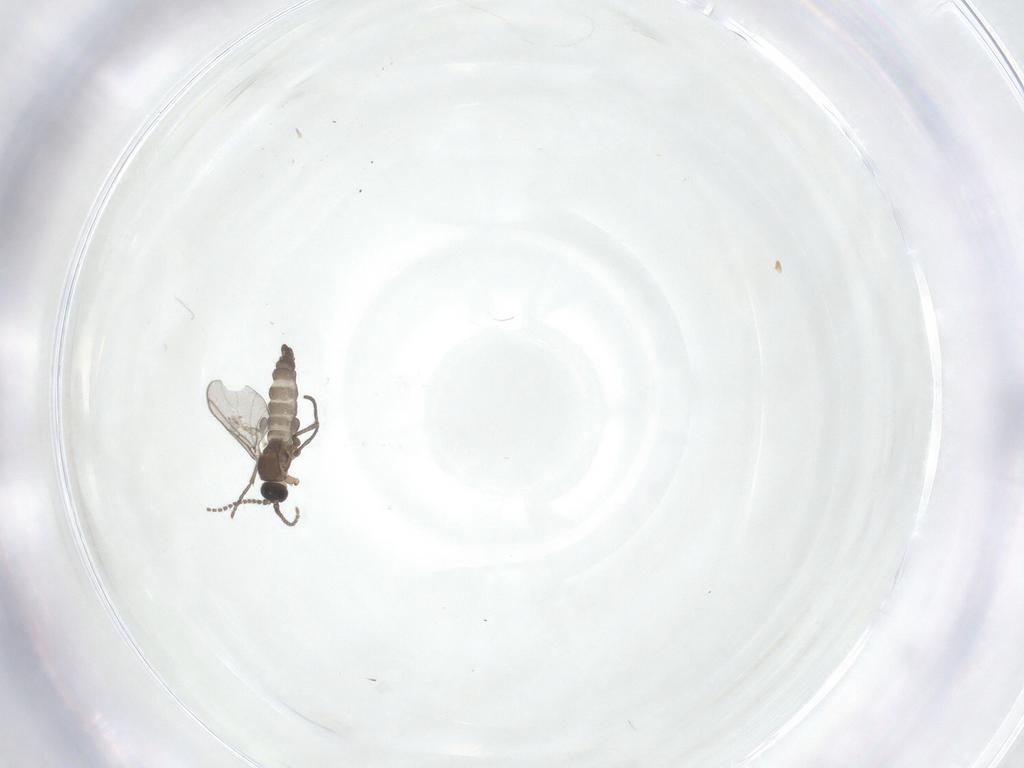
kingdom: Animalia
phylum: Arthropoda
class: Insecta
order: Diptera
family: Sciaridae
